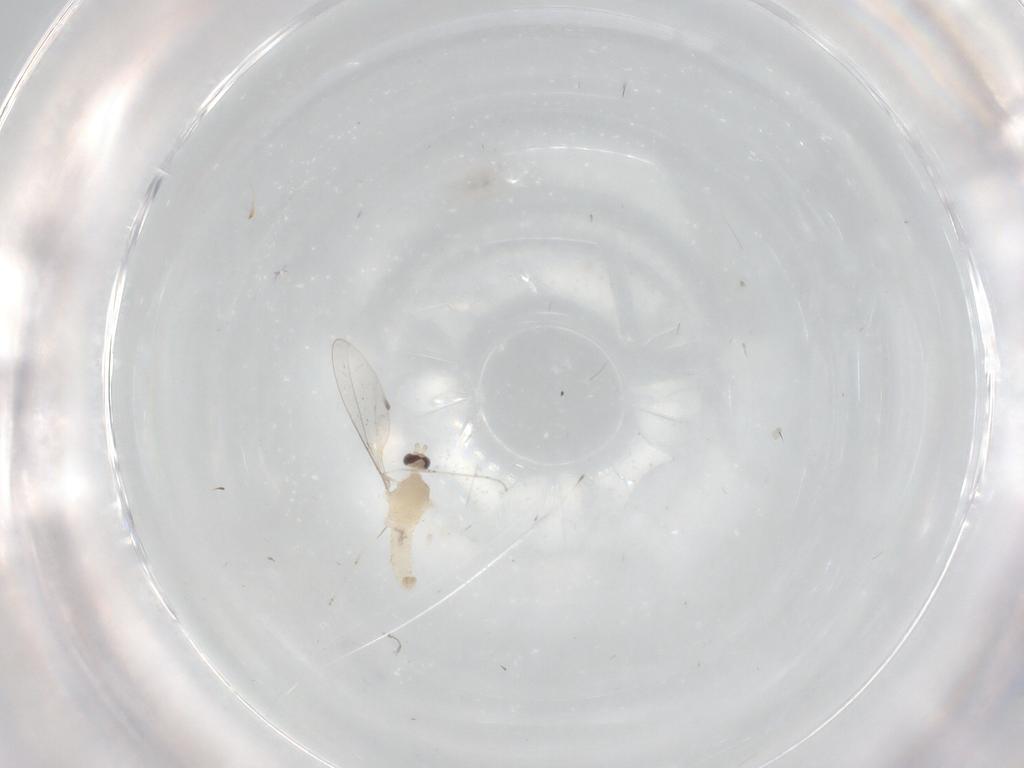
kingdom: Animalia
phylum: Arthropoda
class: Insecta
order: Diptera
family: Cecidomyiidae
